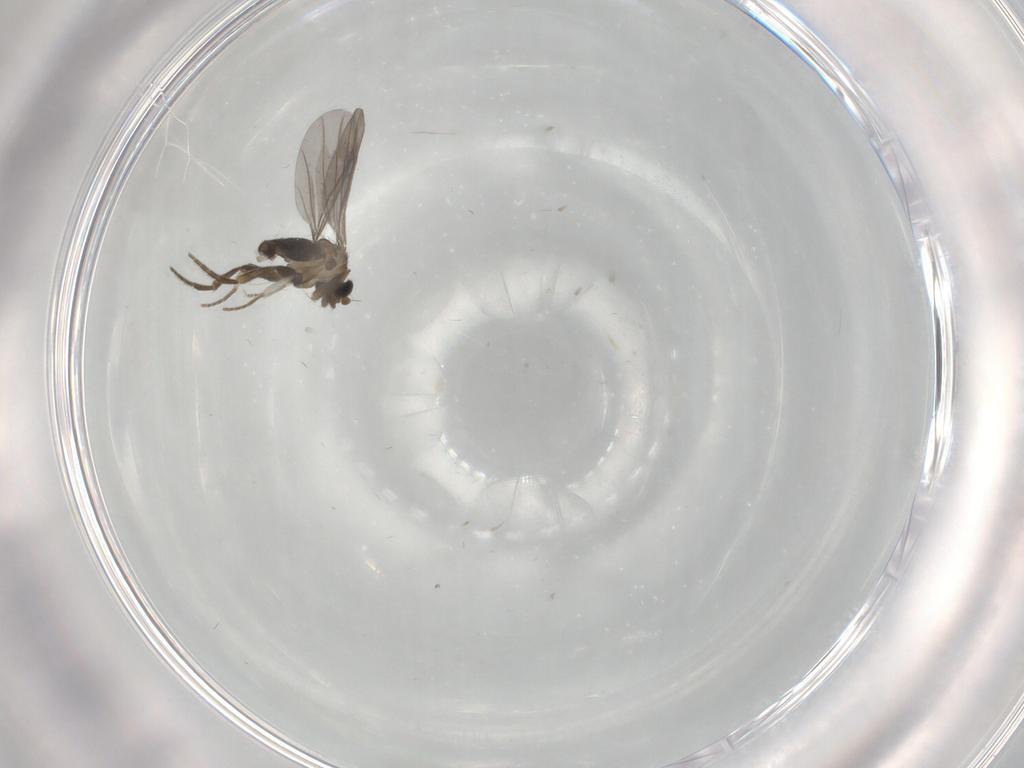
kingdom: Animalia
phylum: Arthropoda
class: Insecta
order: Diptera
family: Phoridae
